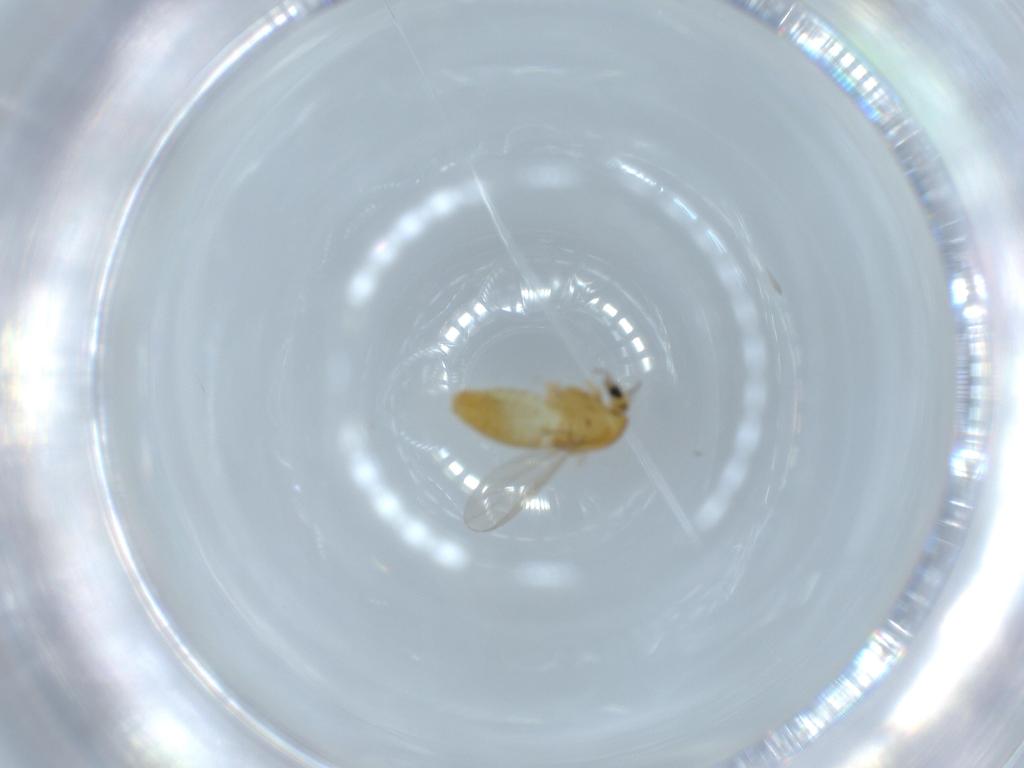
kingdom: Animalia
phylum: Arthropoda
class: Insecta
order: Diptera
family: Chironomidae
